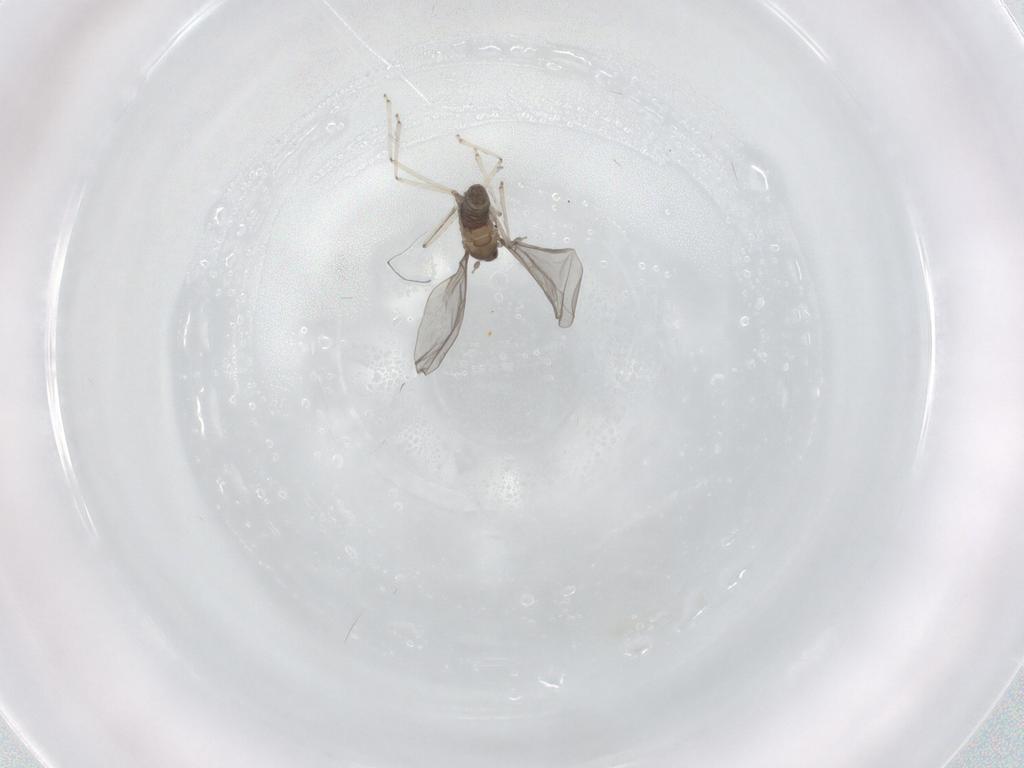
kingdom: Animalia
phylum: Arthropoda
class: Insecta
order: Diptera
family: Cecidomyiidae
